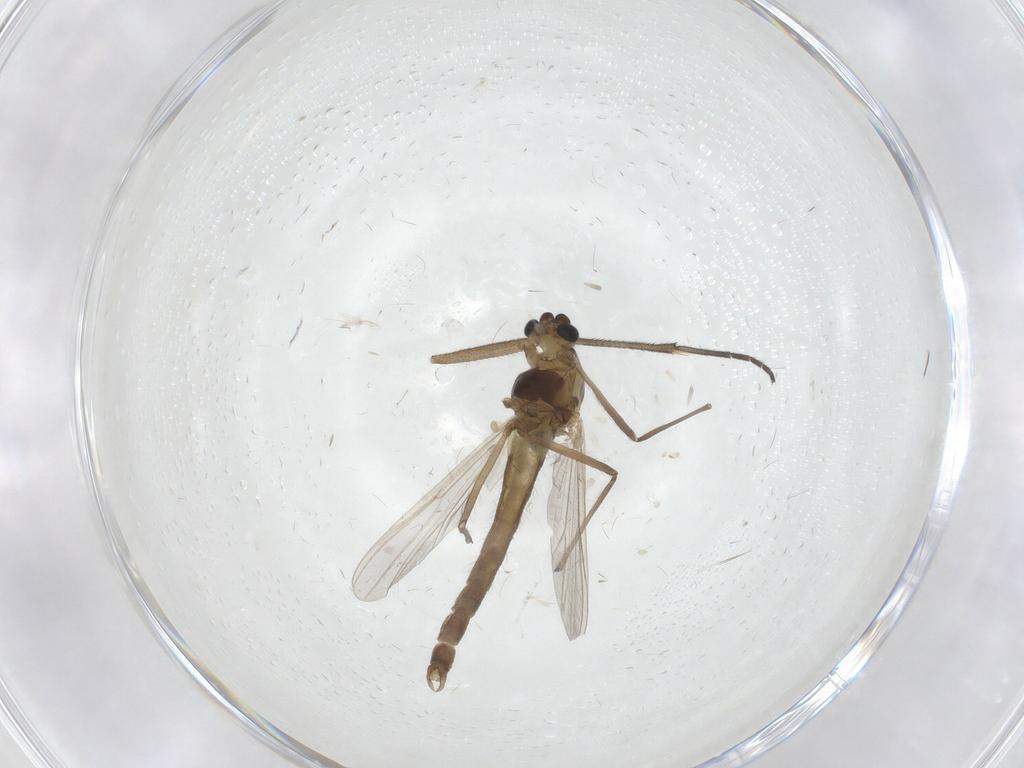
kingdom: Animalia
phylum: Arthropoda
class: Insecta
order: Diptera
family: Chironomidae
